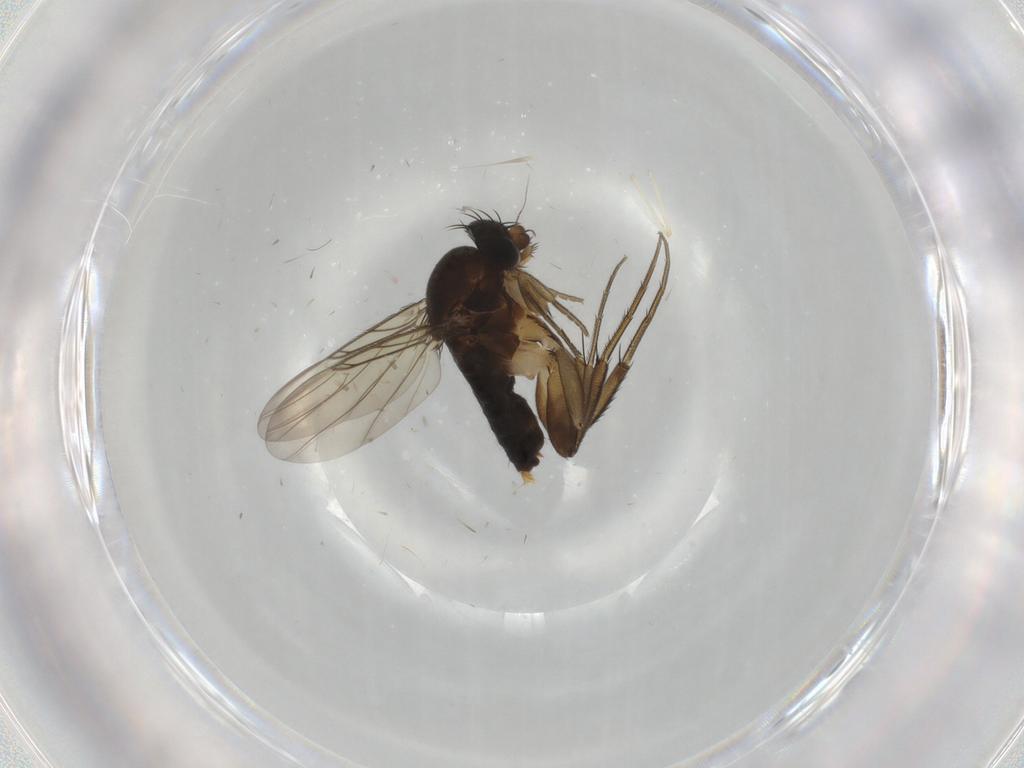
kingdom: Animalia
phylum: Arthropoda
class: Insecta
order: Diptera
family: Phoridae
